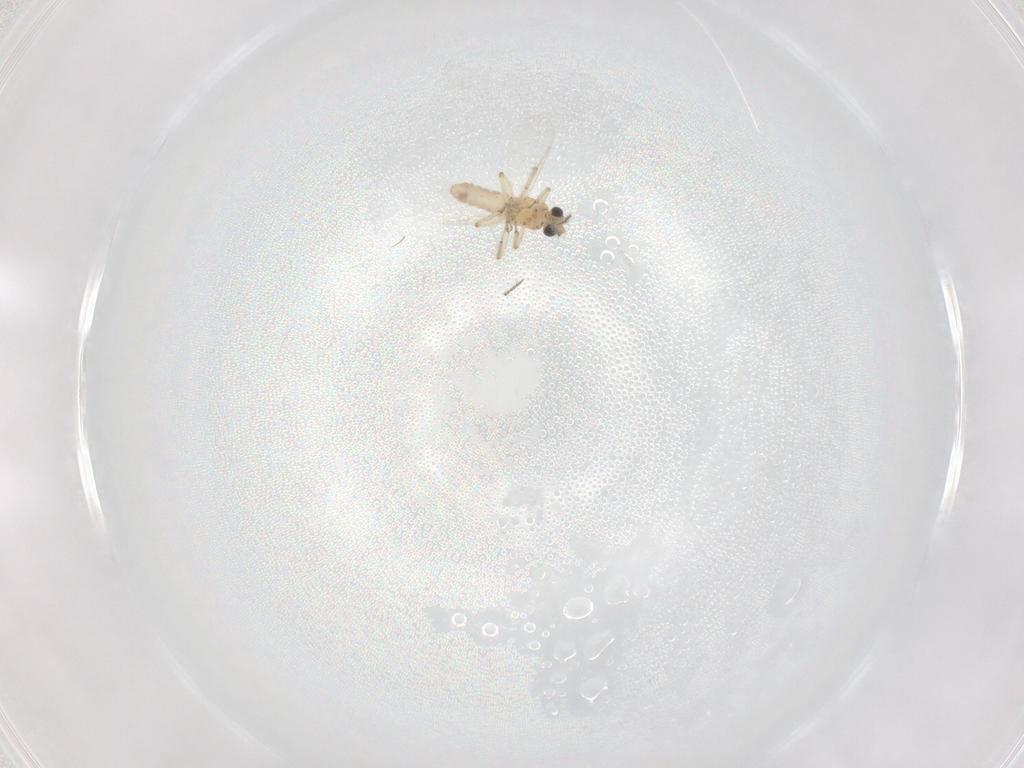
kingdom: Animalia
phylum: Arthropoda
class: Insecta
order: Diptera
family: Ceratopogonidae
